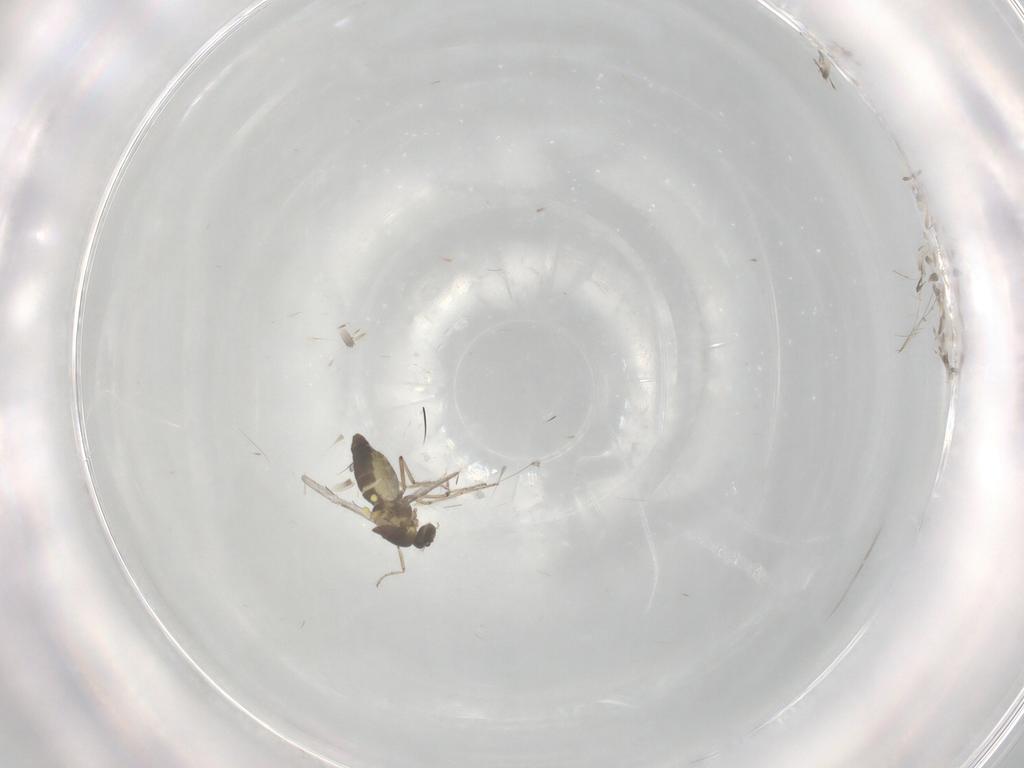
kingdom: Animalia
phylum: Arthropoda
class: Insecta
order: Diptera
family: Ceratopogonidae
